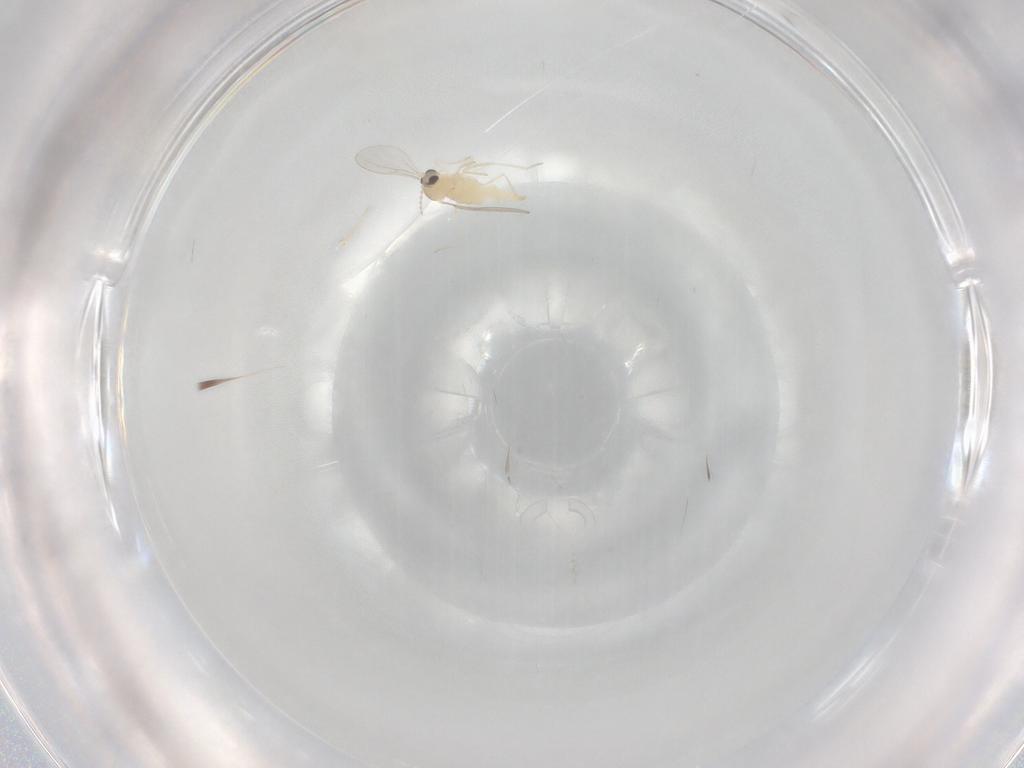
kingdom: Animalia
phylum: Arthropoda
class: Insecta
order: Diptera
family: Cecidomyiidae
